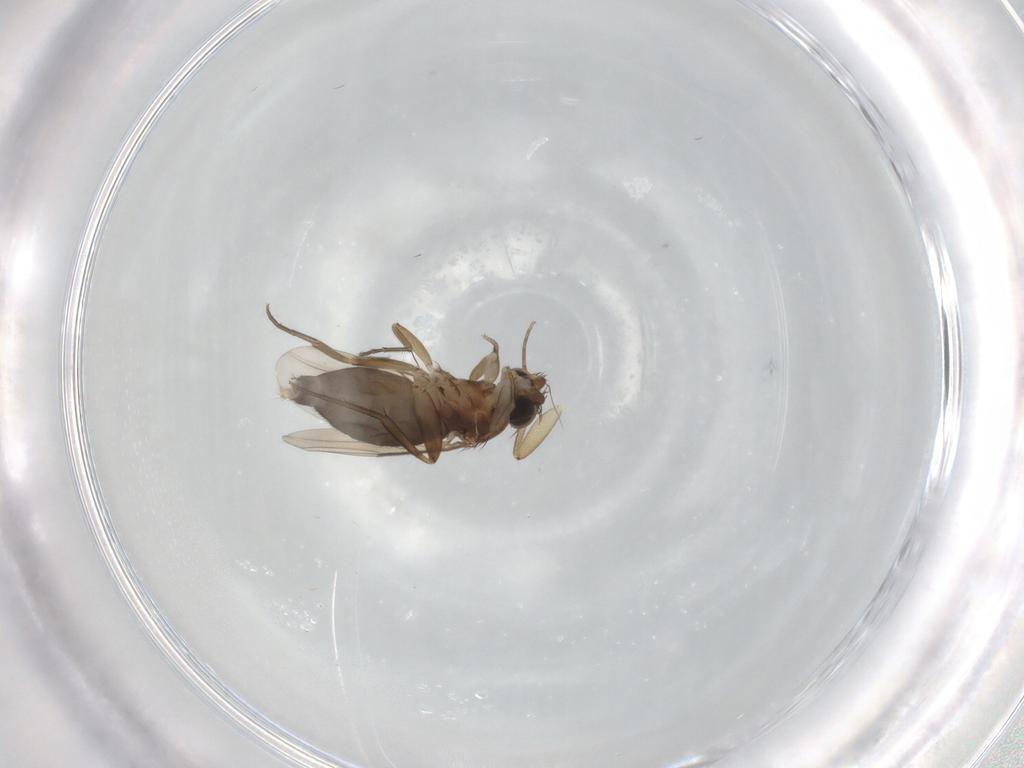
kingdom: Animalia
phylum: Arthropoda
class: Insecta
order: Diptera
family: Phoridae
